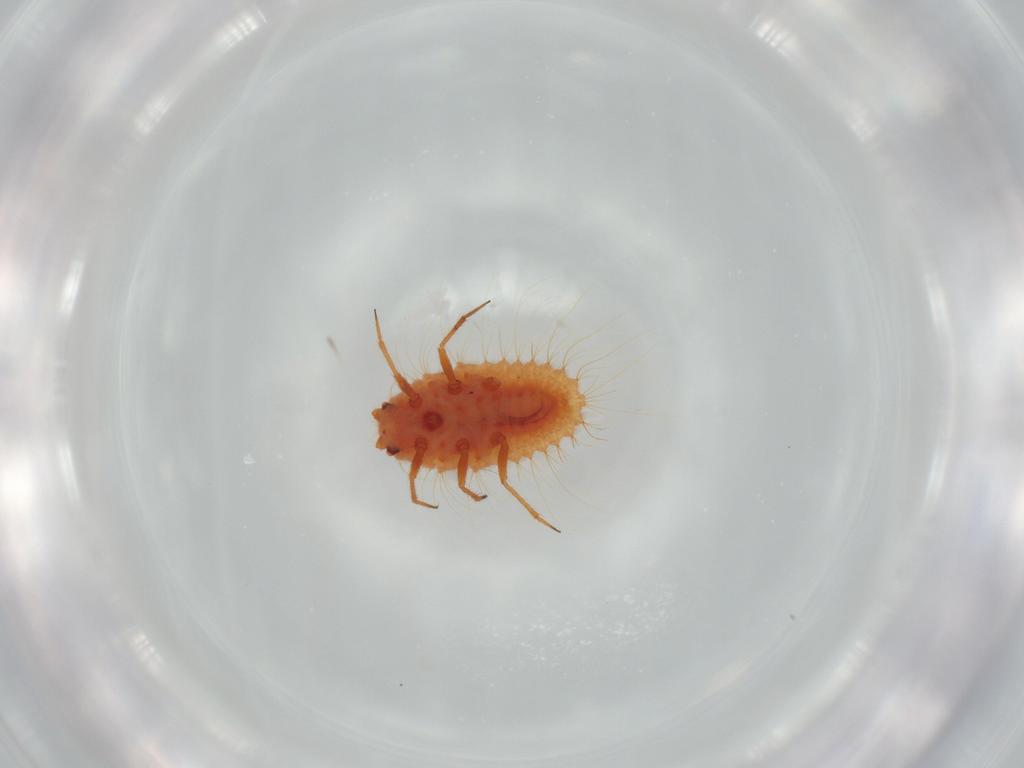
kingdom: Animalia
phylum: Arthropoda
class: Insecta
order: Hemiptera
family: Coccoidea_incertae_sedis
